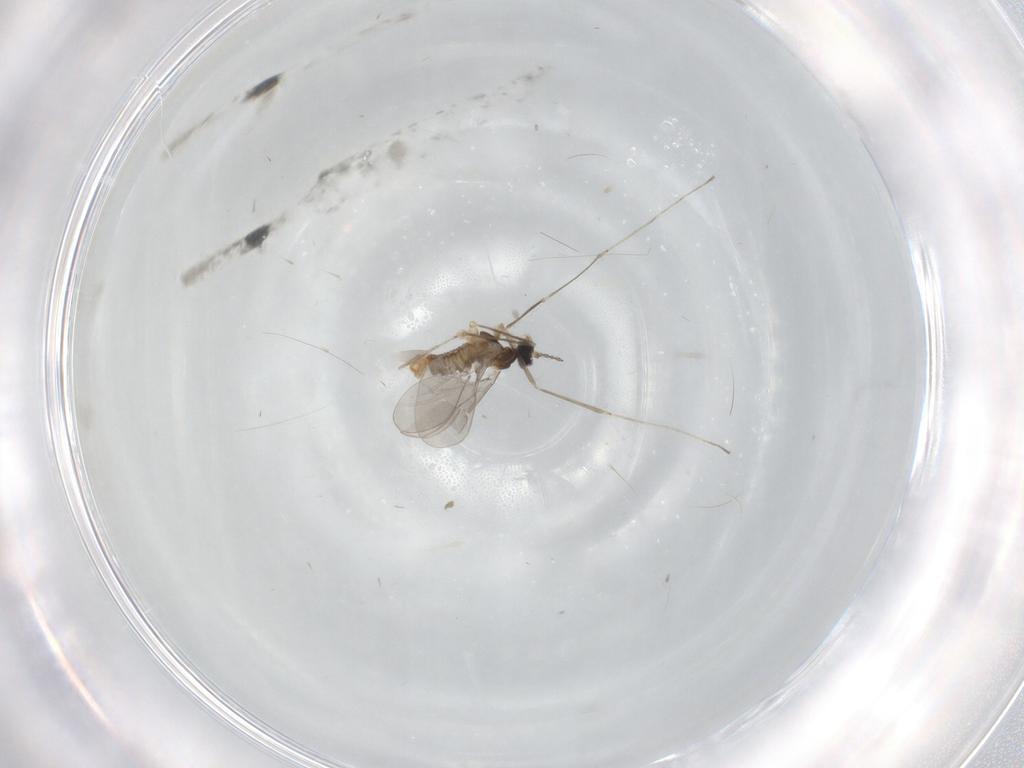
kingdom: Animalia
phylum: Arthropoda
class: Insecta
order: Diptera
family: Cecidomyiidae
